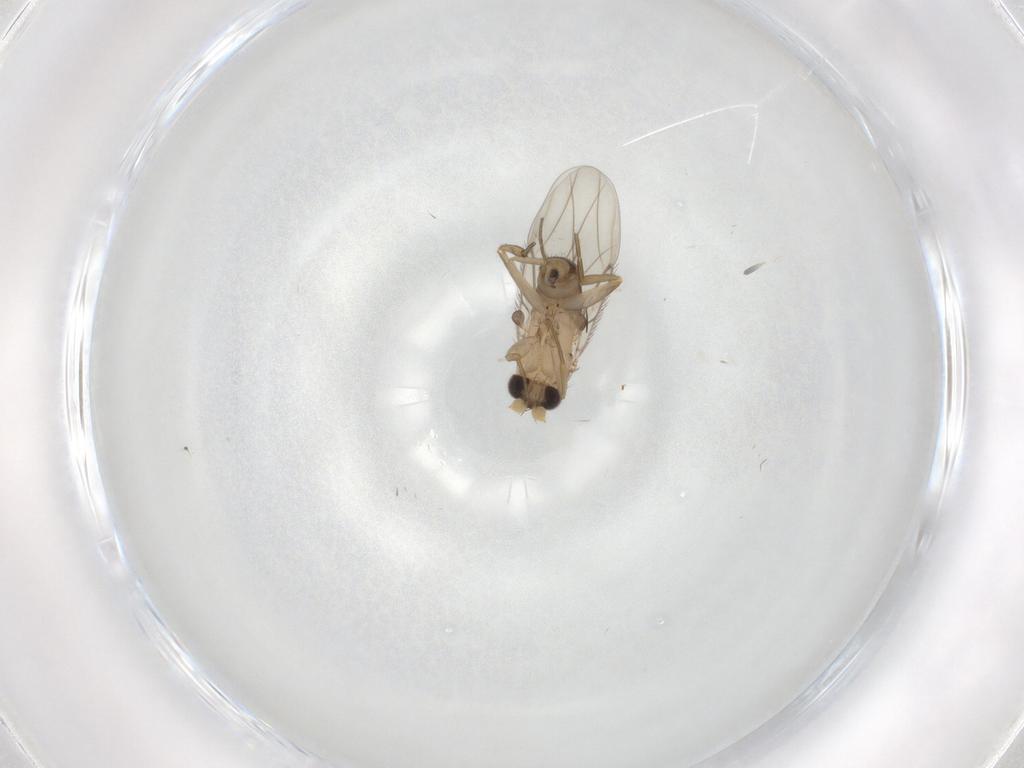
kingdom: Animalia
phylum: Arthropoda
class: Insecta
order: Diptera
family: Chironomidae
